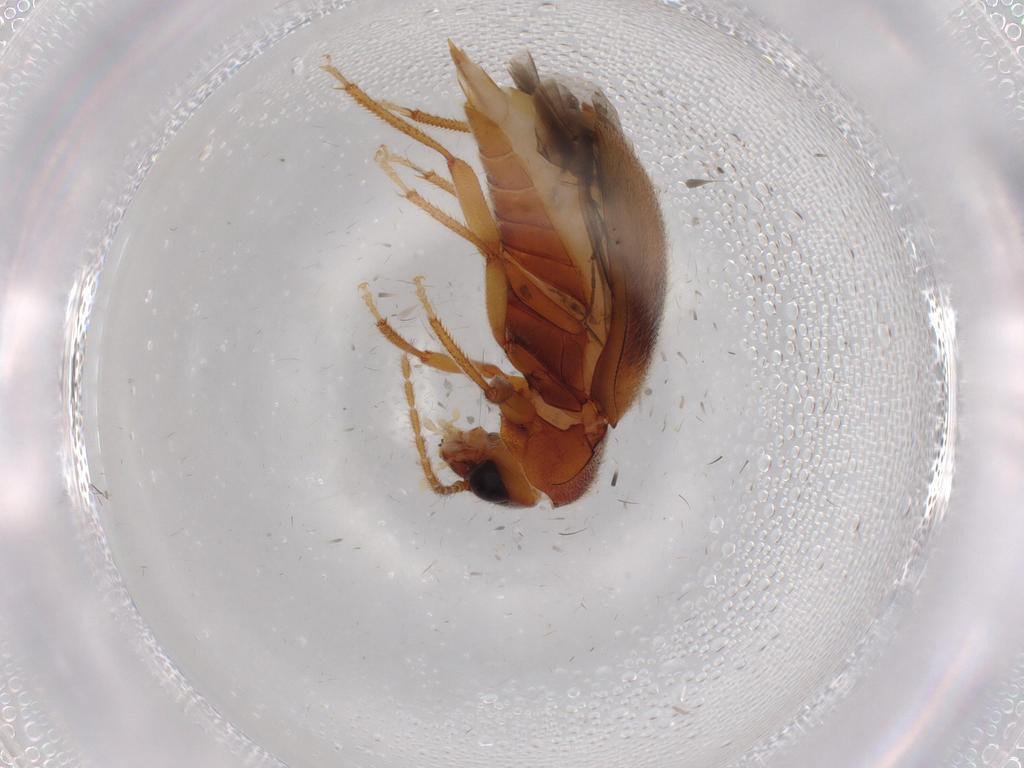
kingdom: Animalia
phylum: Arthropoda
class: Insecta
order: Coleoptera
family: Ptilodactylidae
